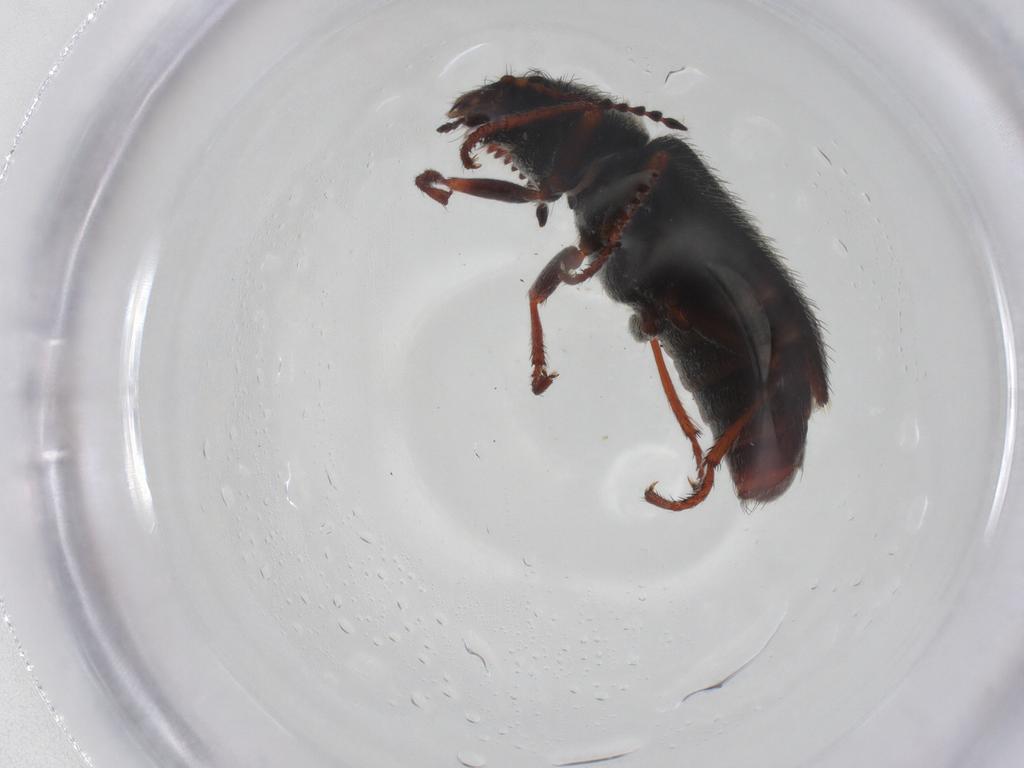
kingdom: Animalia
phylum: Arthropoda
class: Insecta
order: Coleoptera
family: Melyridae
